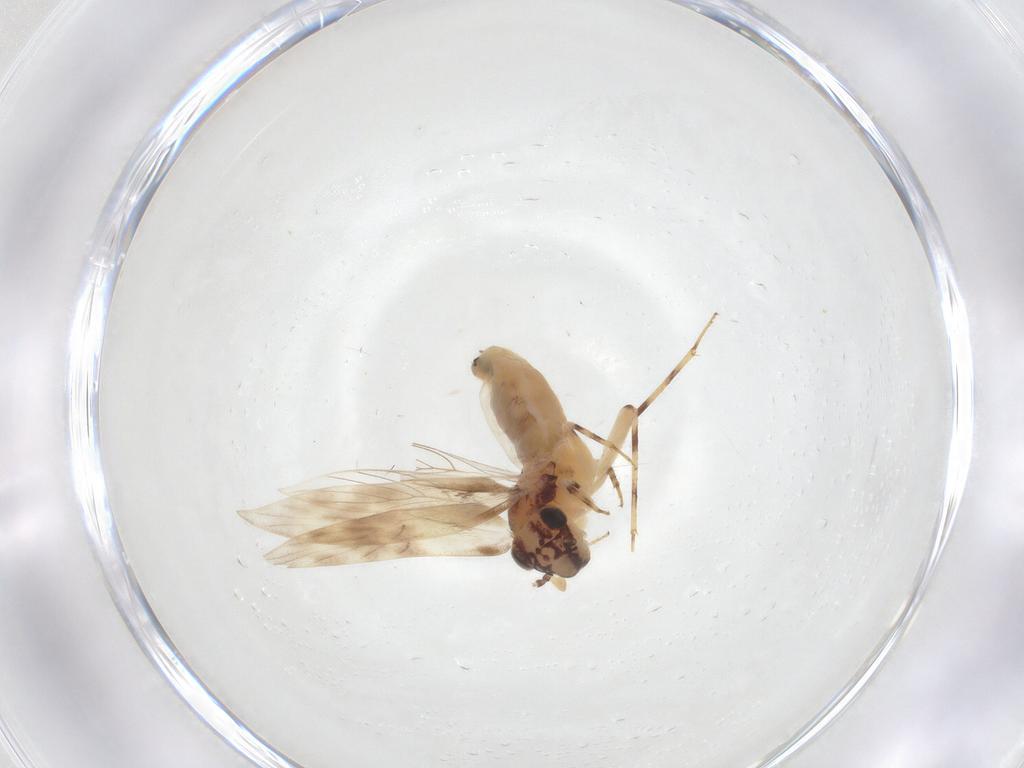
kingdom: Animalia
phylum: Arthropoda
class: Insecta
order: Psocodea
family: Lepidopsocidae
